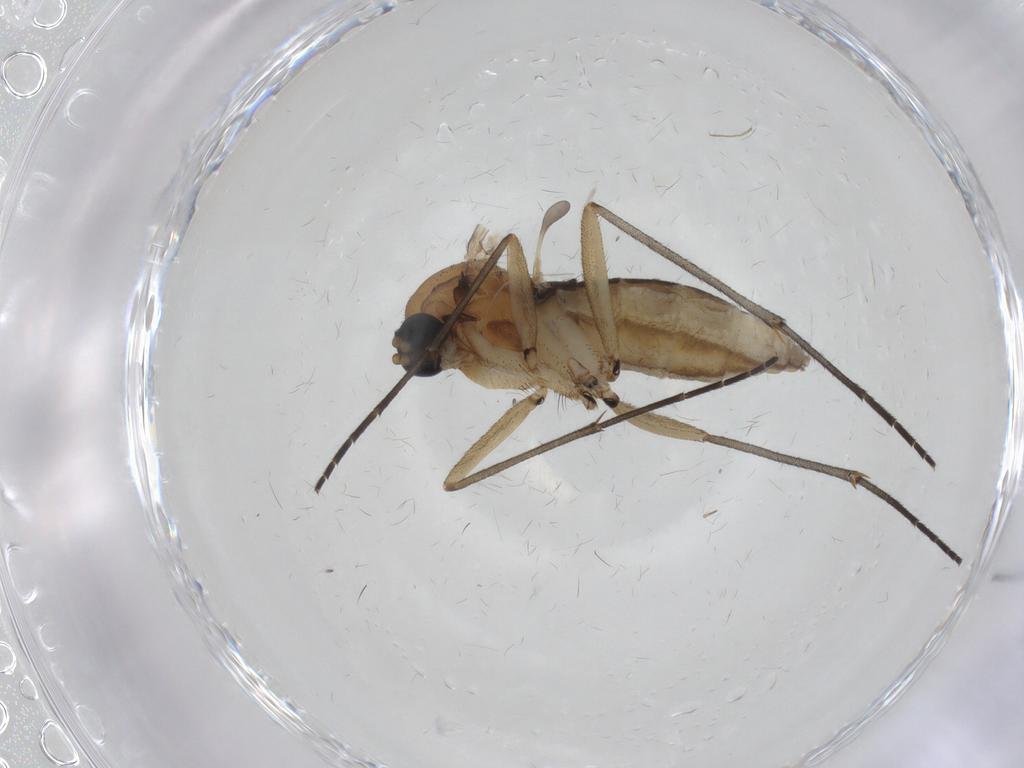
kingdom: Animalia
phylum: Arthropoda
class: Insecta
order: Diptera
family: Sciaridae
